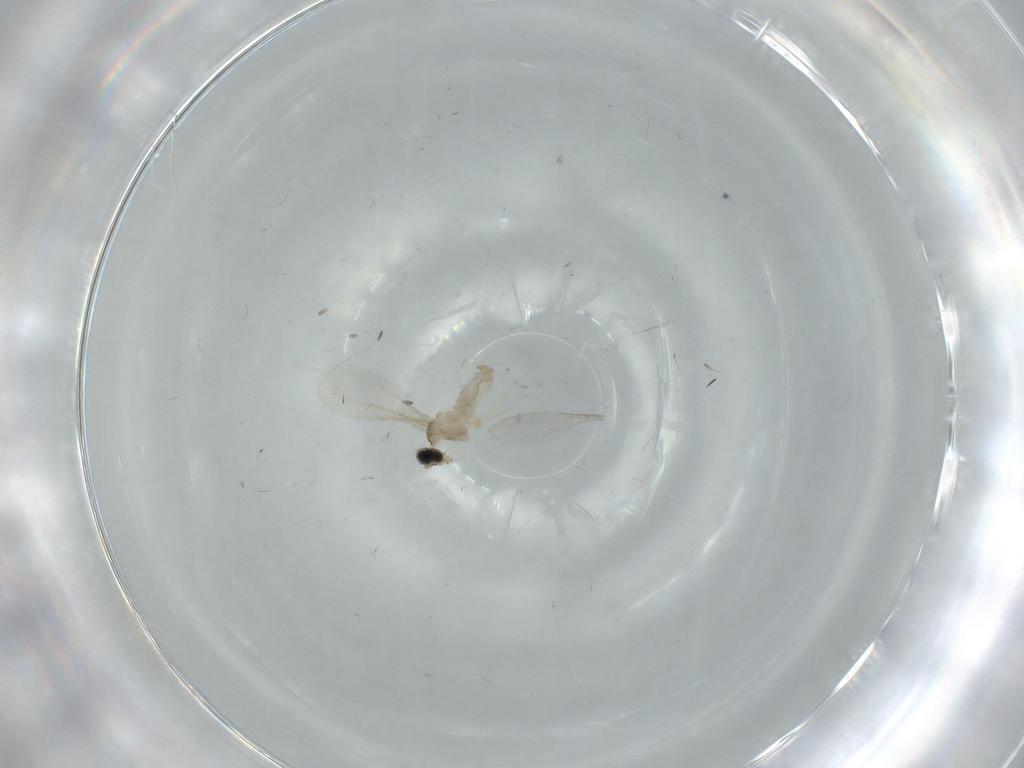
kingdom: Animalia
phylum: Arthropoda
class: Insecta
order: Diptera
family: Cecidomyiidae
